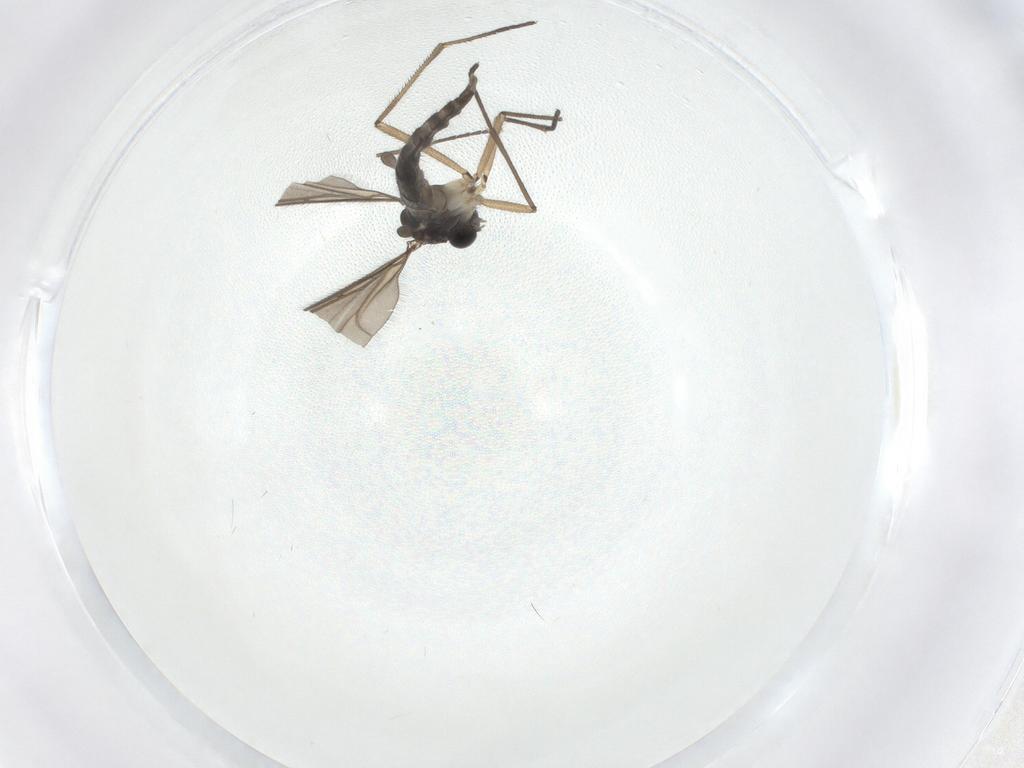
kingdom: Animalia
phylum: Arthropoda
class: Insecta
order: Diptera
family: Sciaridae
